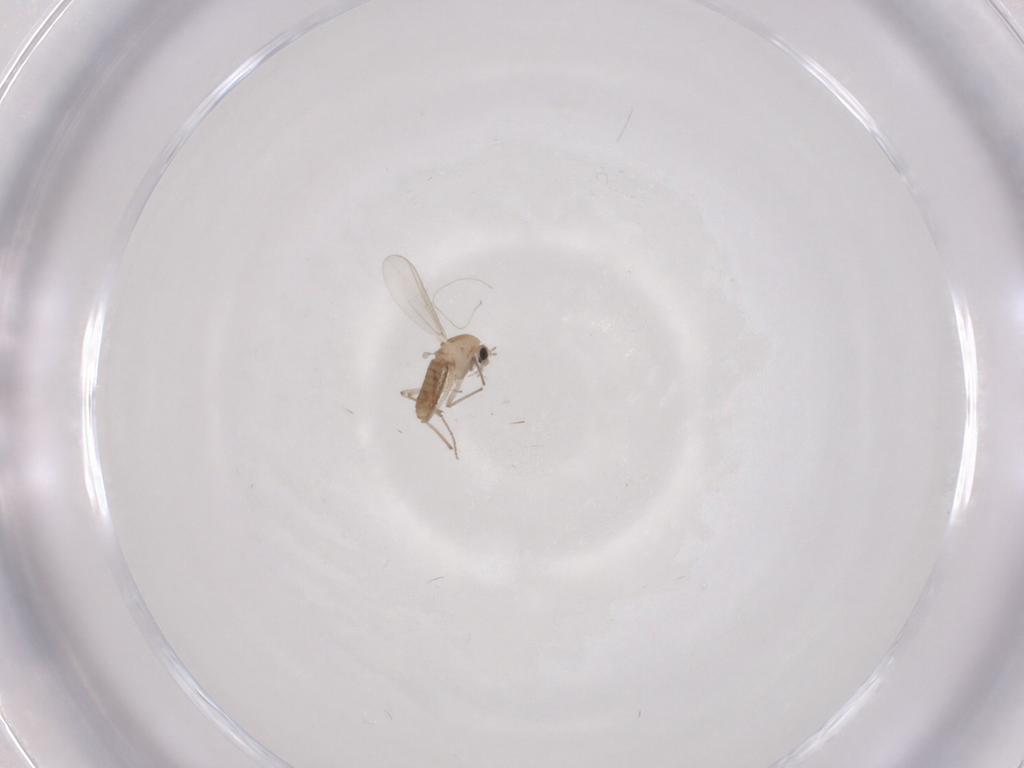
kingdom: Animalia
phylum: Arthropoda
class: Insecta
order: Diptera
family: Chironomidae
